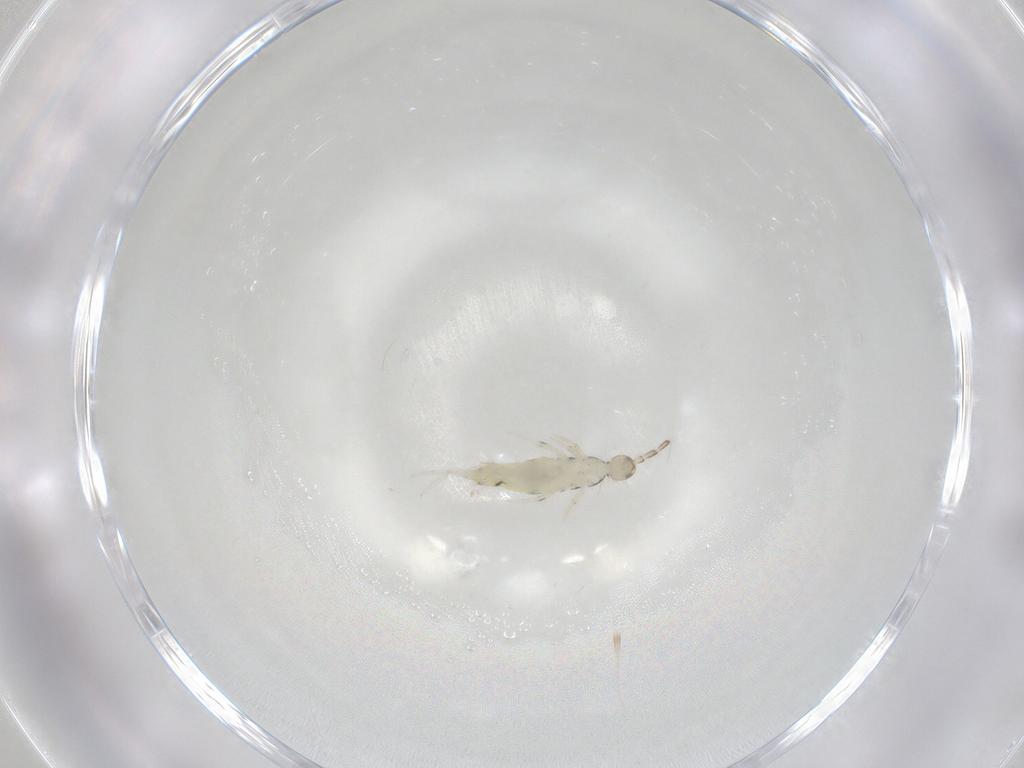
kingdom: Animalia
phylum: Arthropoda
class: Collembola
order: Entomobryomorpha
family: Entomobryidae
